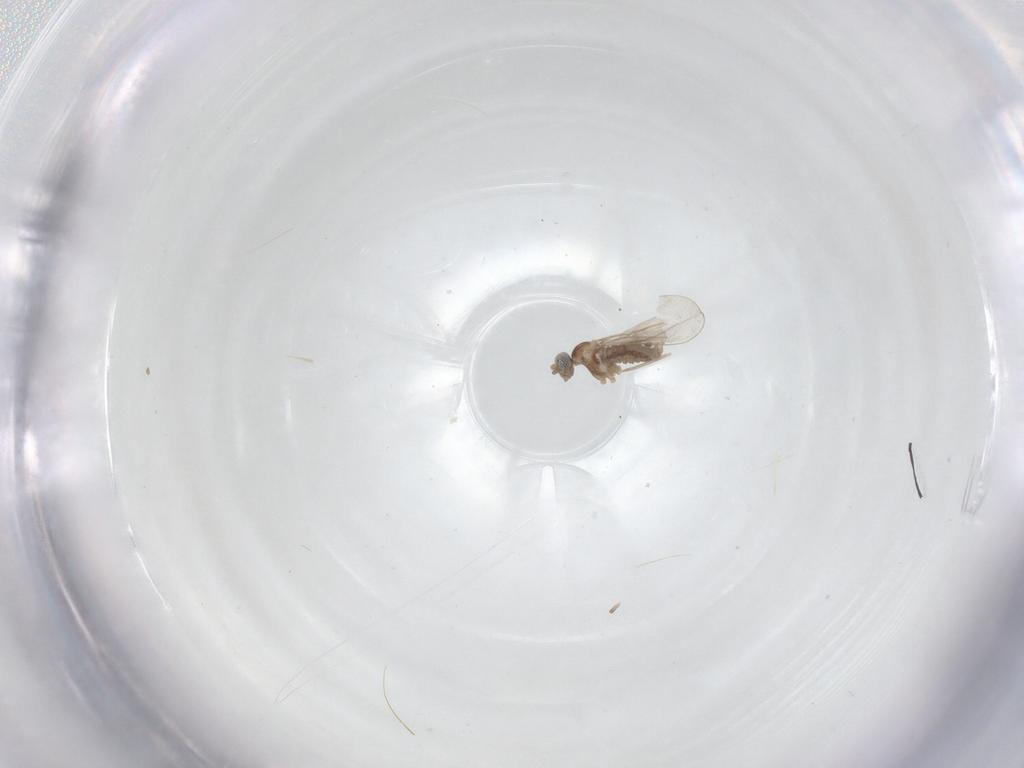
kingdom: Animalia
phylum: Arthropoda
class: Insecta
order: Diptera
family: Cecidomyiidae
